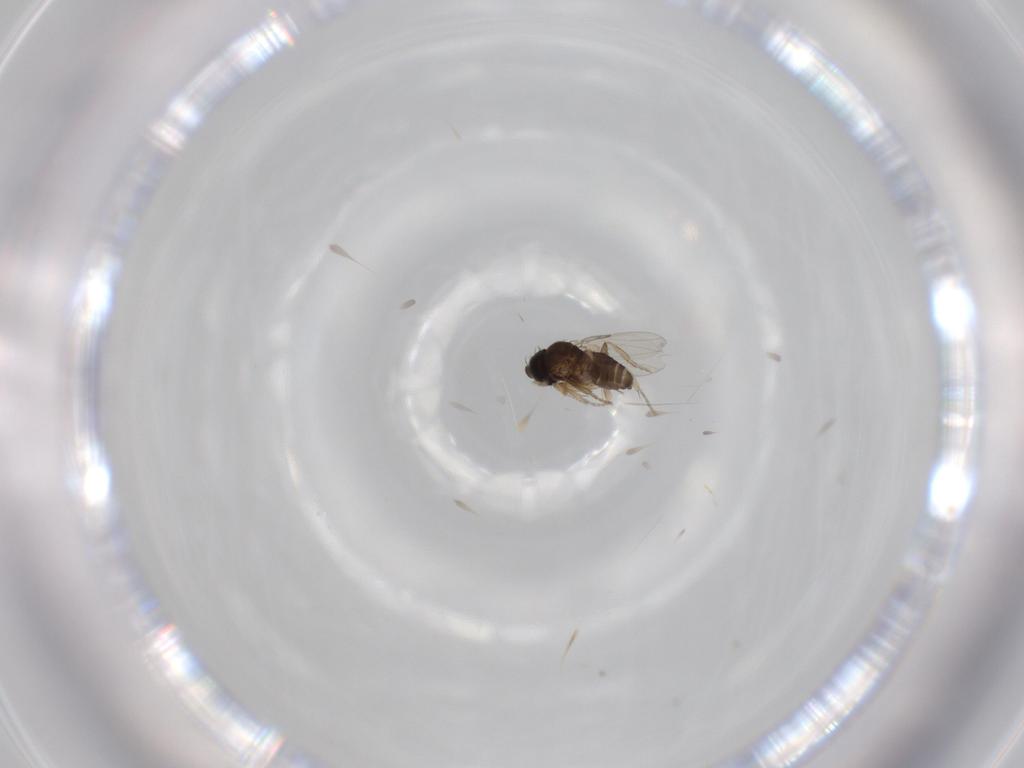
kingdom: Animalia
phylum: Arthropoda
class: Insecta
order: Diptera
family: Phoridae
